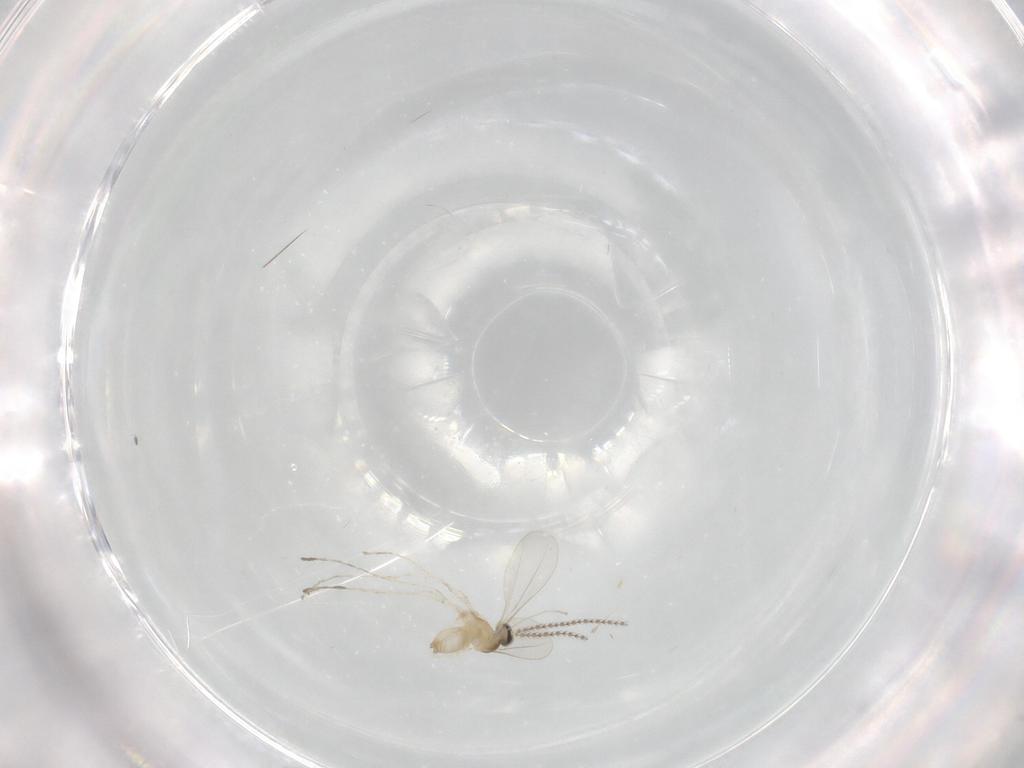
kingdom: Animalia
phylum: Arthropoda
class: Insecta
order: Diptera
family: Cecidomyiidae
